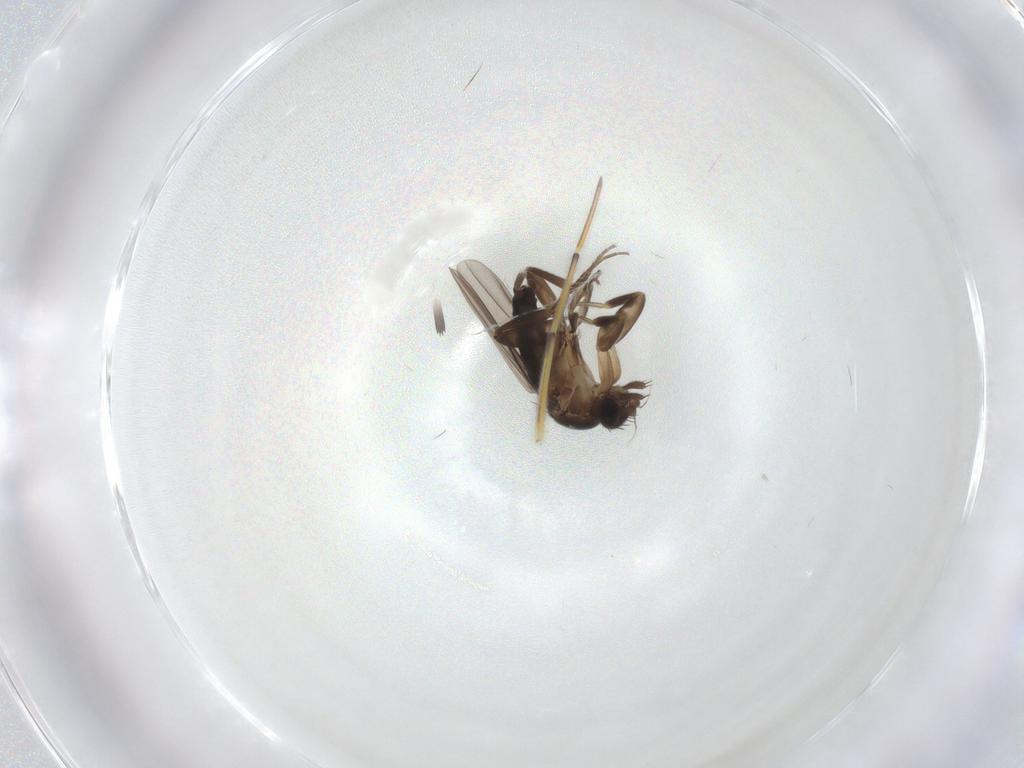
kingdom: Animalia
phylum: Arthropoda
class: Insecta
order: Diptera
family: Phoridae
